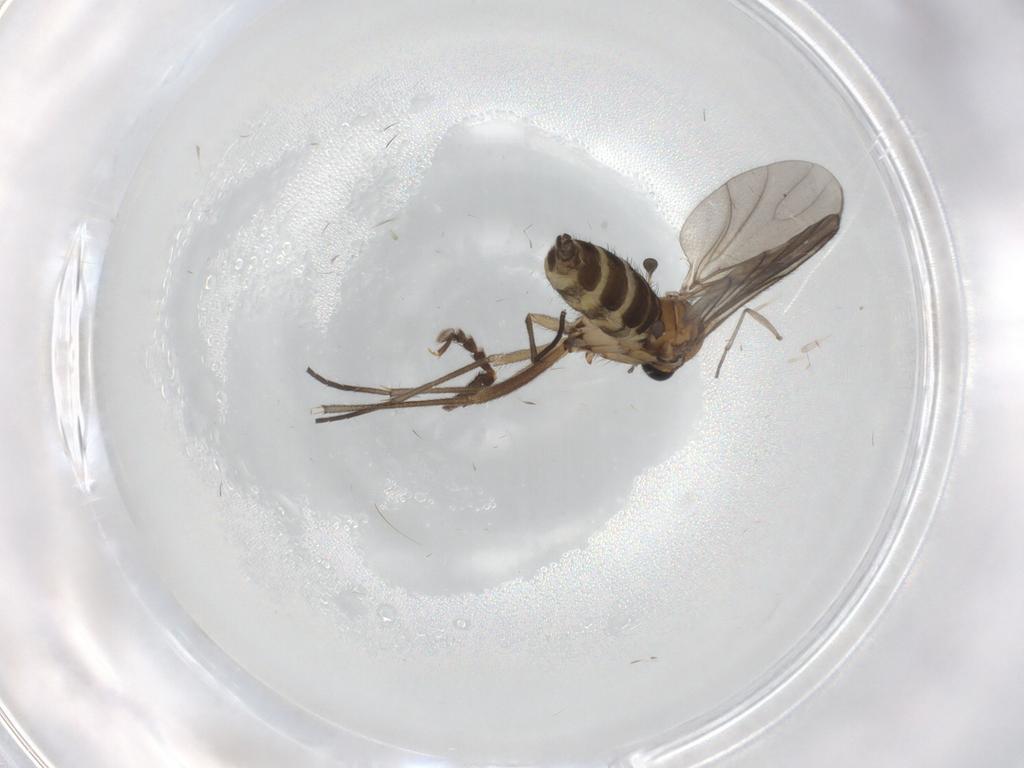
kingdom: Animalia
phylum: Arthropoda
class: Insecta
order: Diptera
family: Sciaridae
